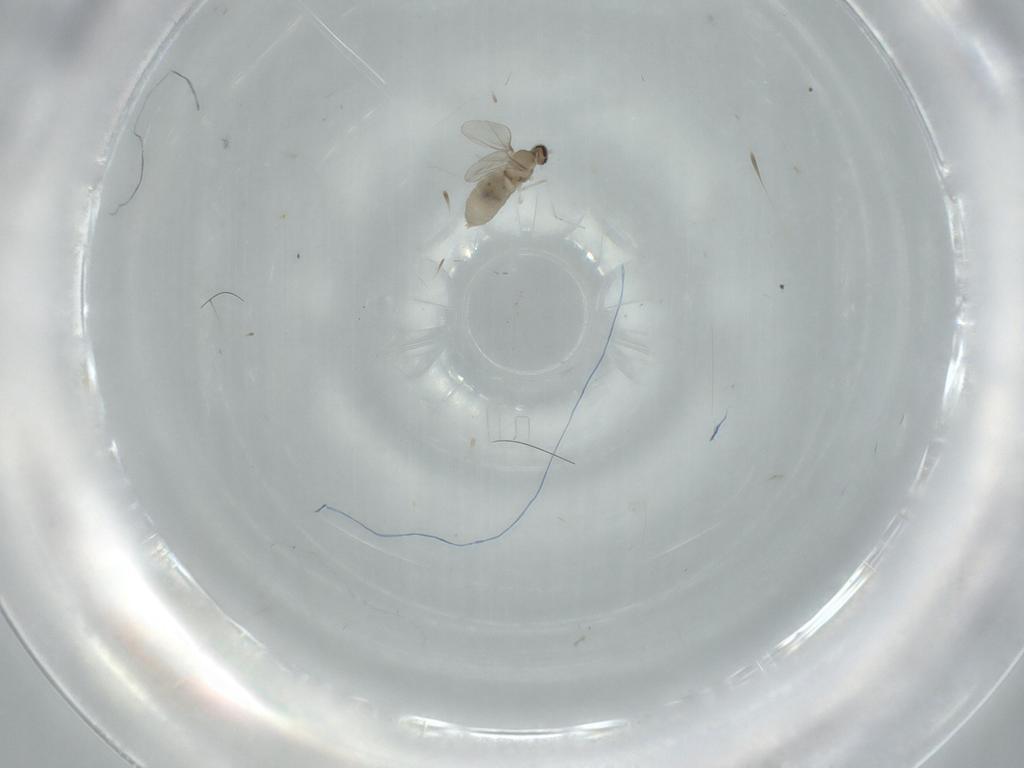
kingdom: Animalia
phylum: Arthropoda
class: Insecta
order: Diptera
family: Cecidomyiidae
